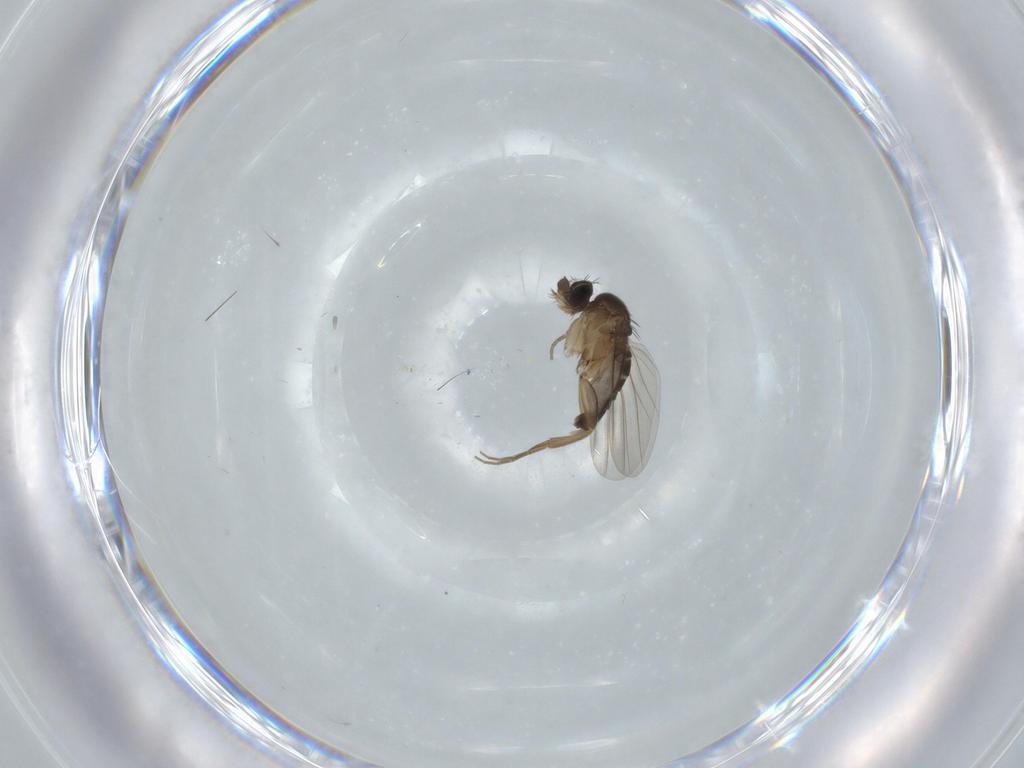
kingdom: Animalia
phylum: Arthropoda
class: Insecta
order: Diptera
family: Phoridae
